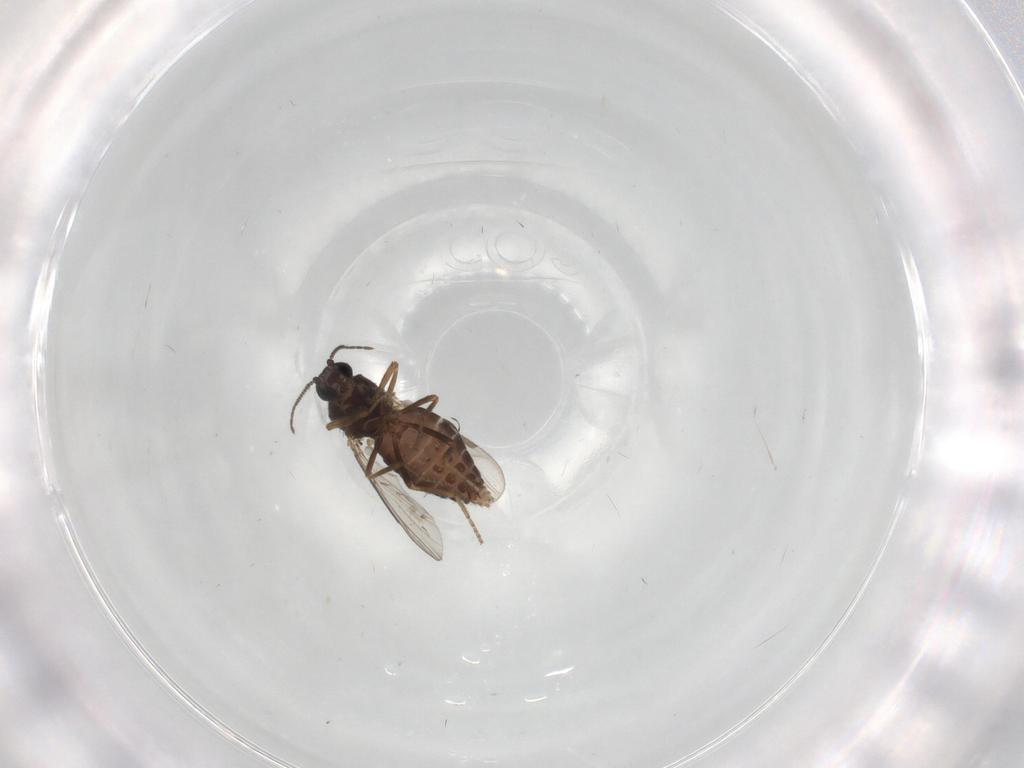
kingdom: Animalia
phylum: Arthropoda
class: Insecta
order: Diptera
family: Ceratopogonidae
